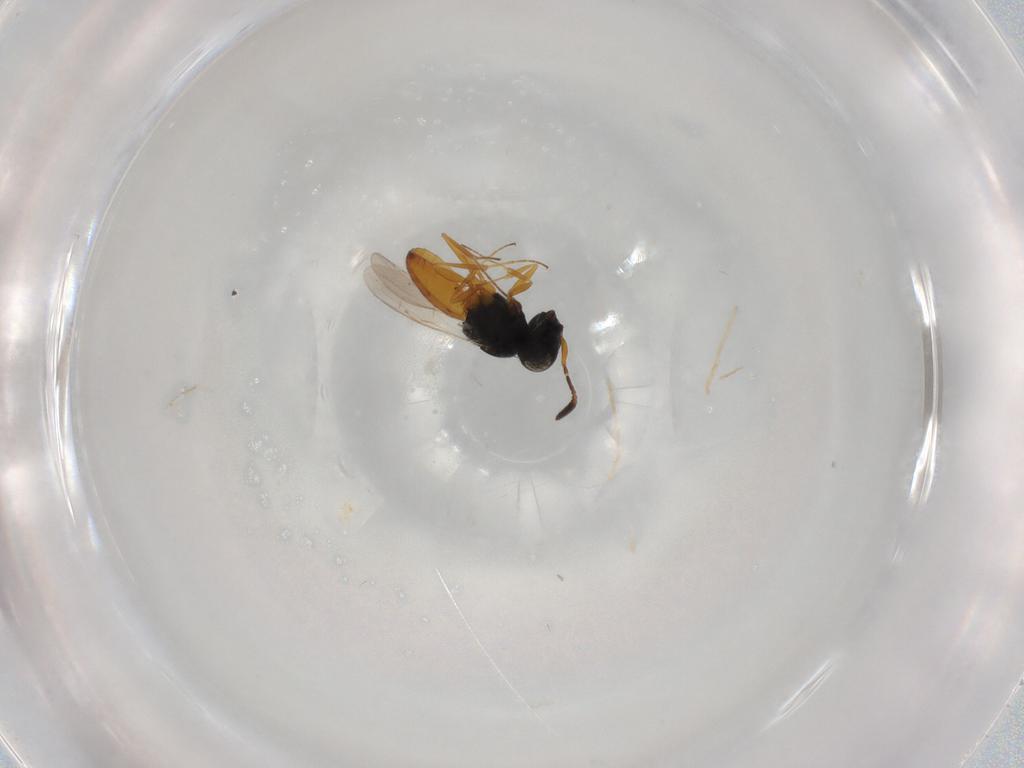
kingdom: Animalia
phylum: Arthropoda
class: Insecta
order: Hymenoptera
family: Scelionidae
